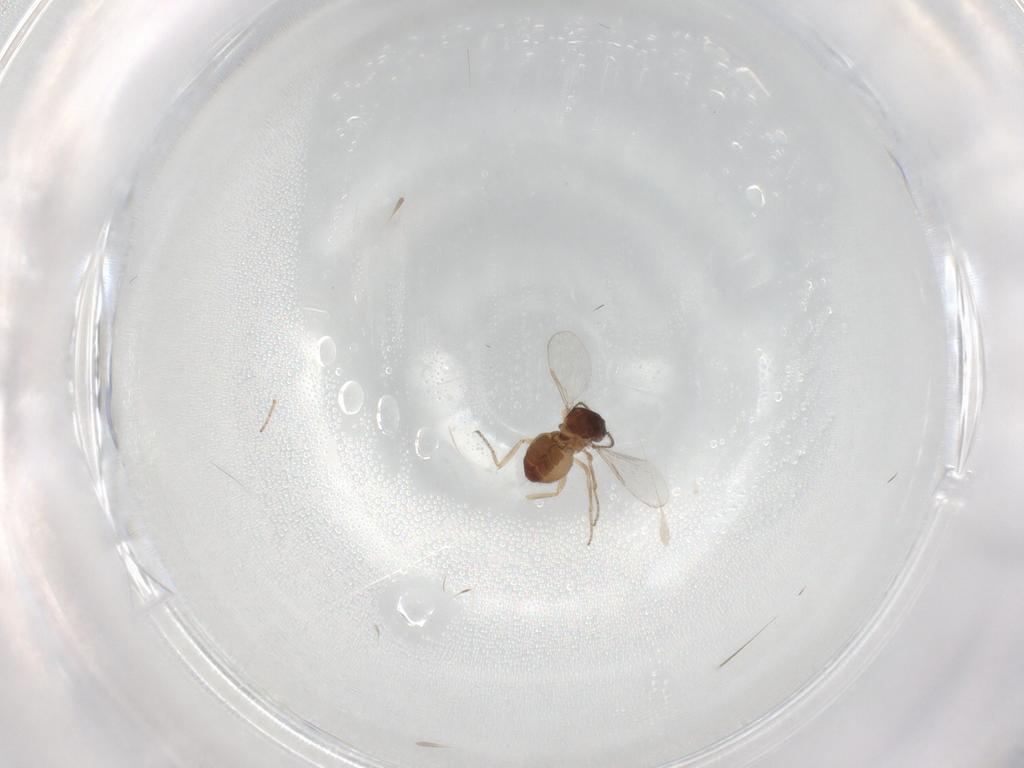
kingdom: Animalia
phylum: Arthropoda
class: Insecta
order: Diptera
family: Ceratopogonidae
